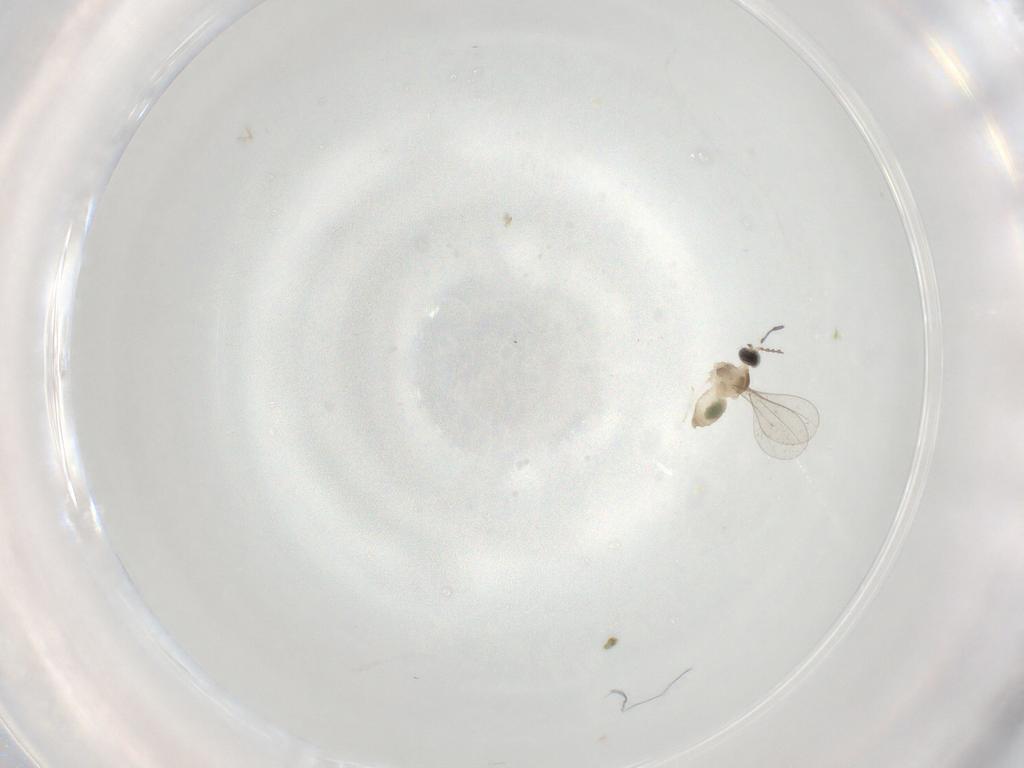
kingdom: Animalia
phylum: Arthropoda
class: Insecta
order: Diptera
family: Cecidomyiidae
